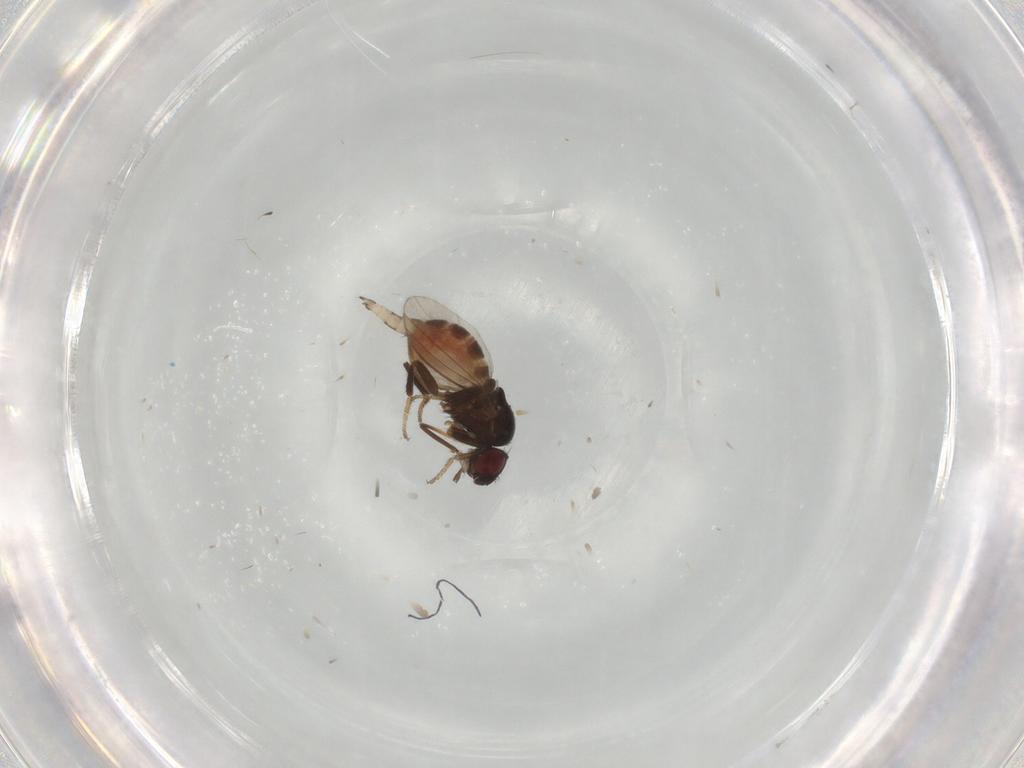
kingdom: Animalia
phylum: Arthropoda
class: Insecta
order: Diptera
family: Milichiidae
